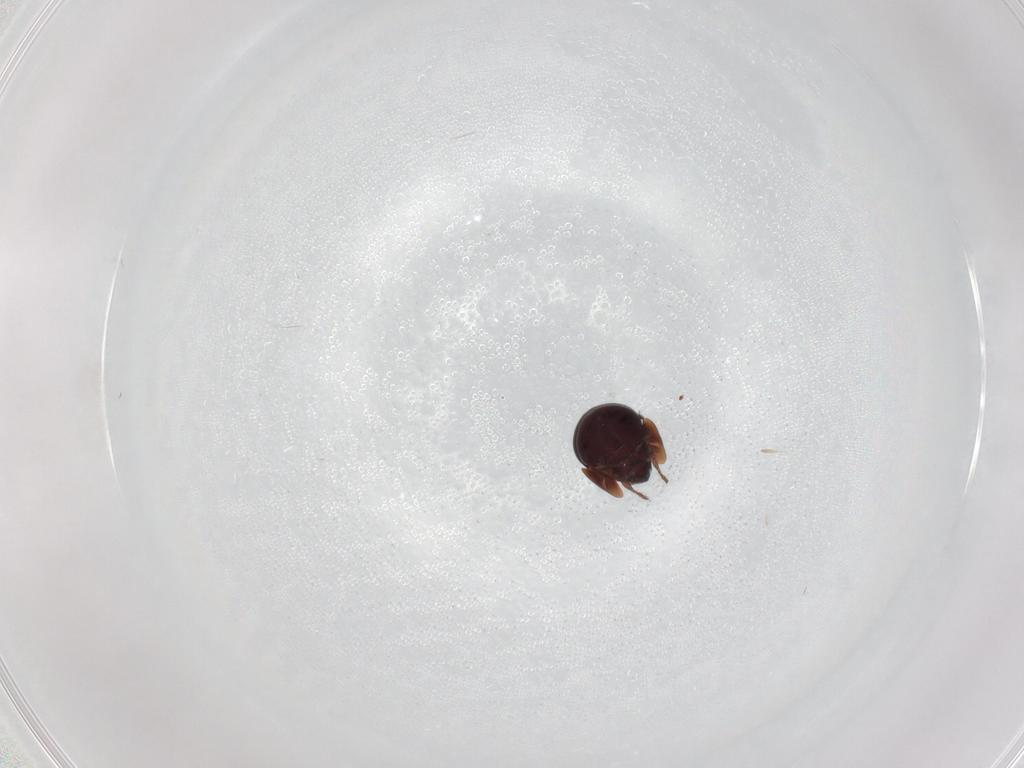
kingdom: Animalia
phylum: Arthropoda
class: Arachnida
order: Sarcoptiformes
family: Galumnidae
